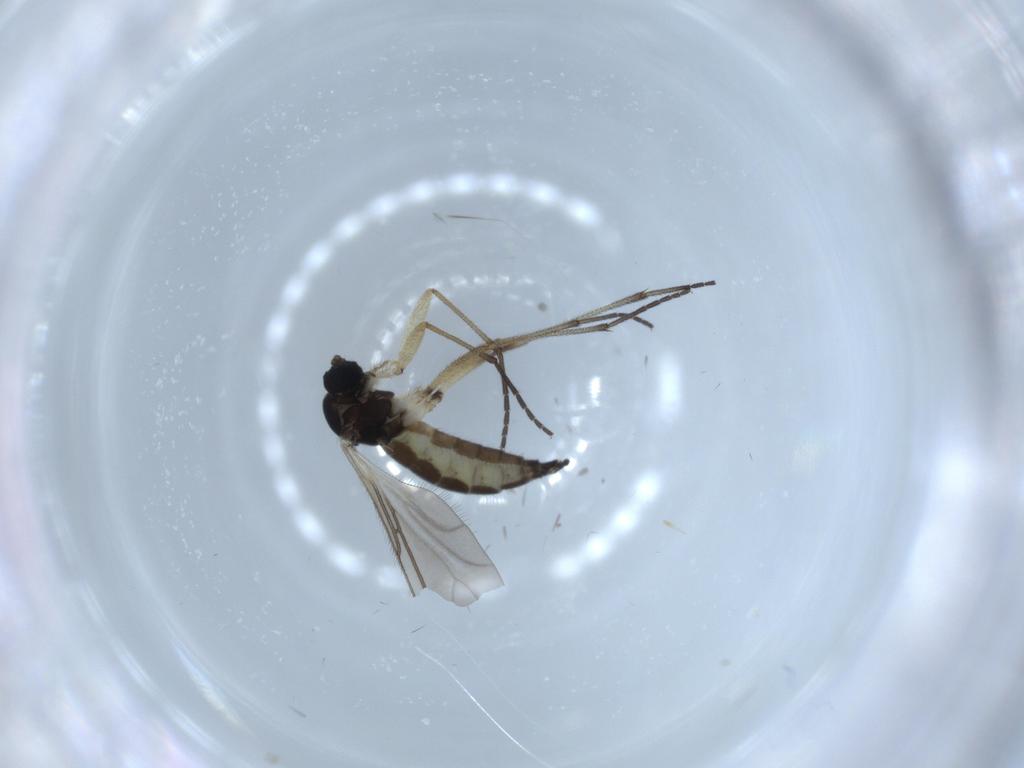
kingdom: Animalia
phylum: Arthropoda
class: Insecta
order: Diptera
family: Sciaridae
